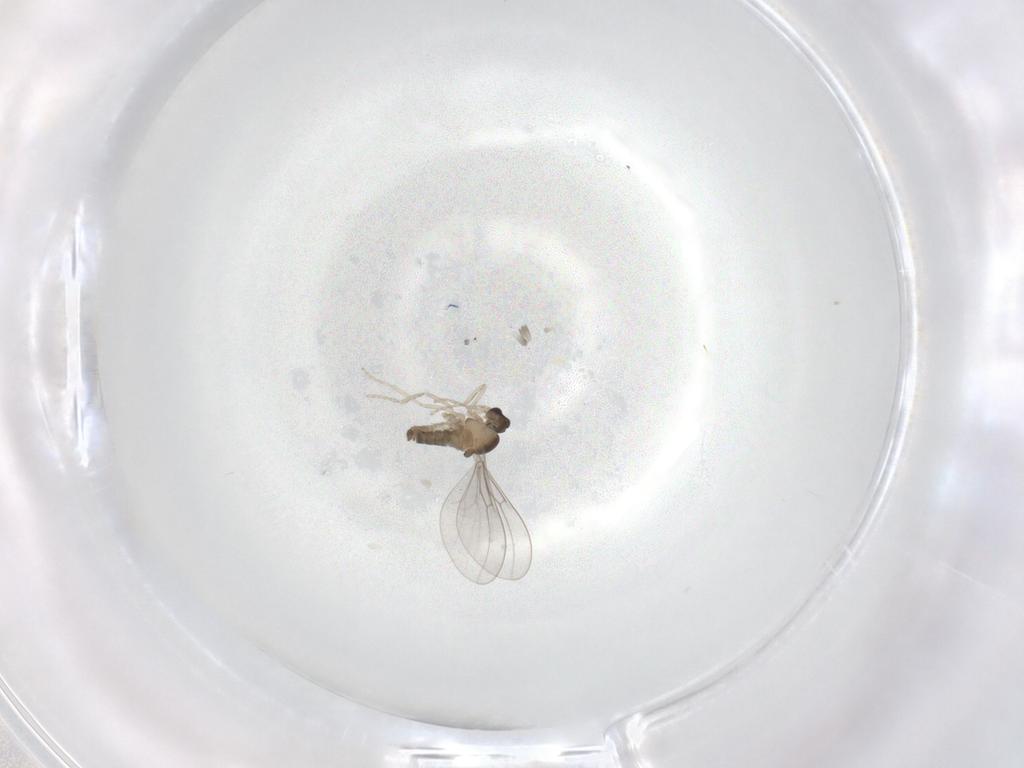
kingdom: Animalia
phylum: Arthropoda
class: Insecta
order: Diptera
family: Cecidomyiidae
